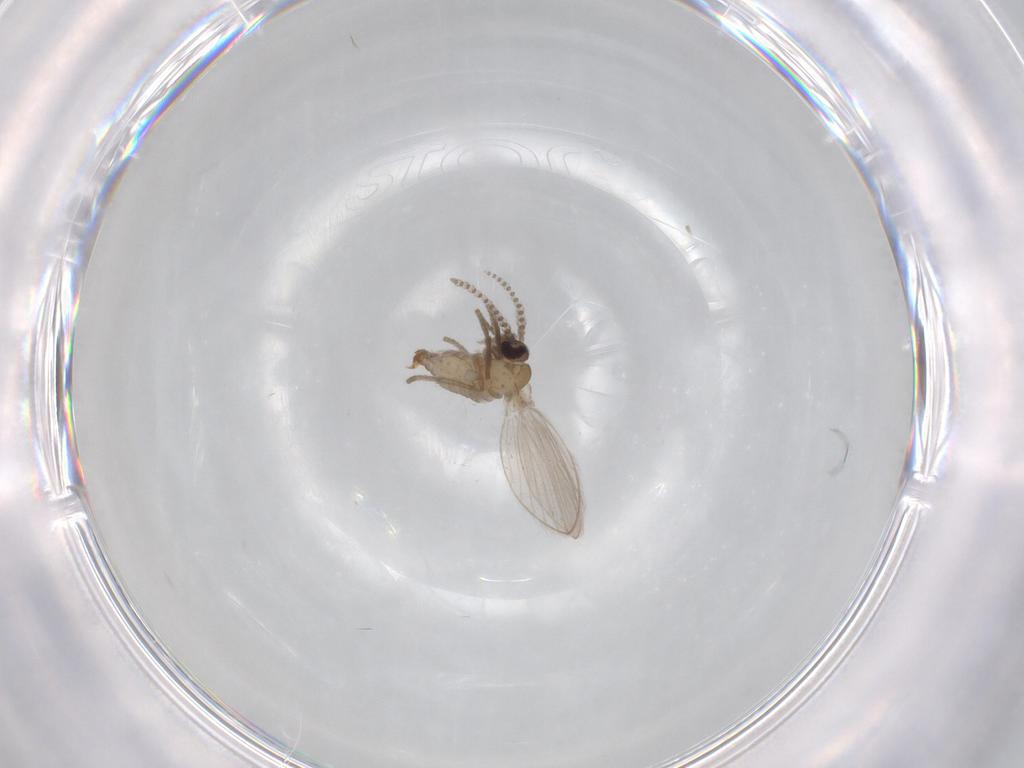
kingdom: Animalia
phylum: Arthropoda
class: Insecta
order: Diptera
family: Psychodidae
